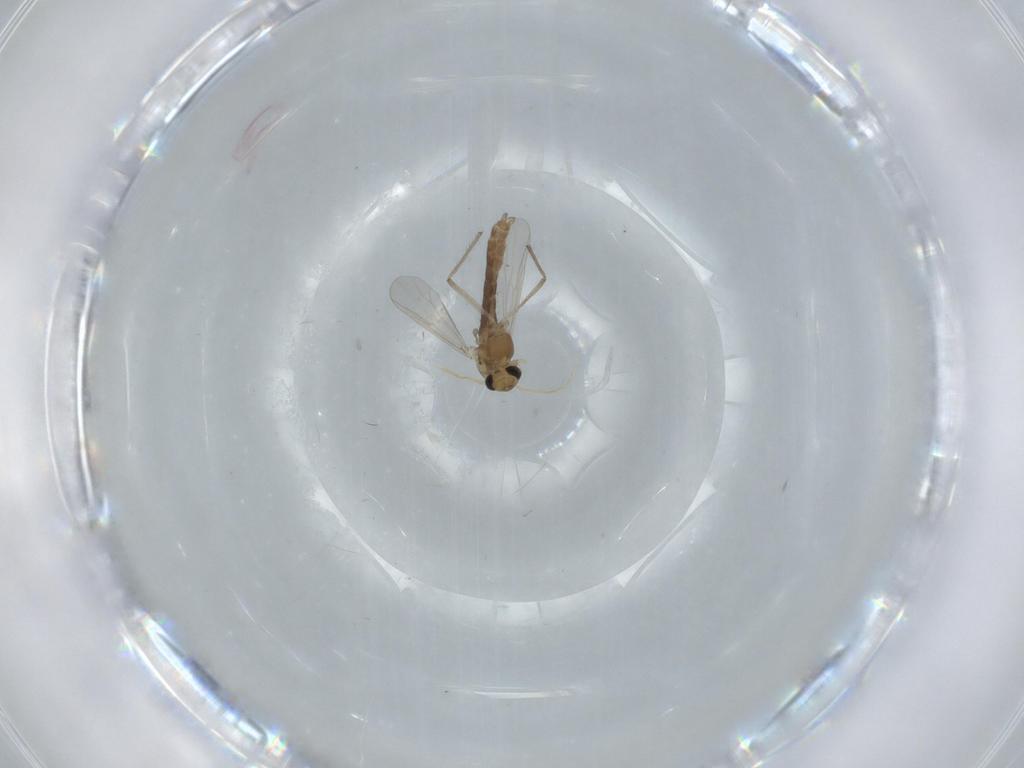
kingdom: Animalia
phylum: Arthropoda
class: Insecta
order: Diptera
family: Chironomidae
